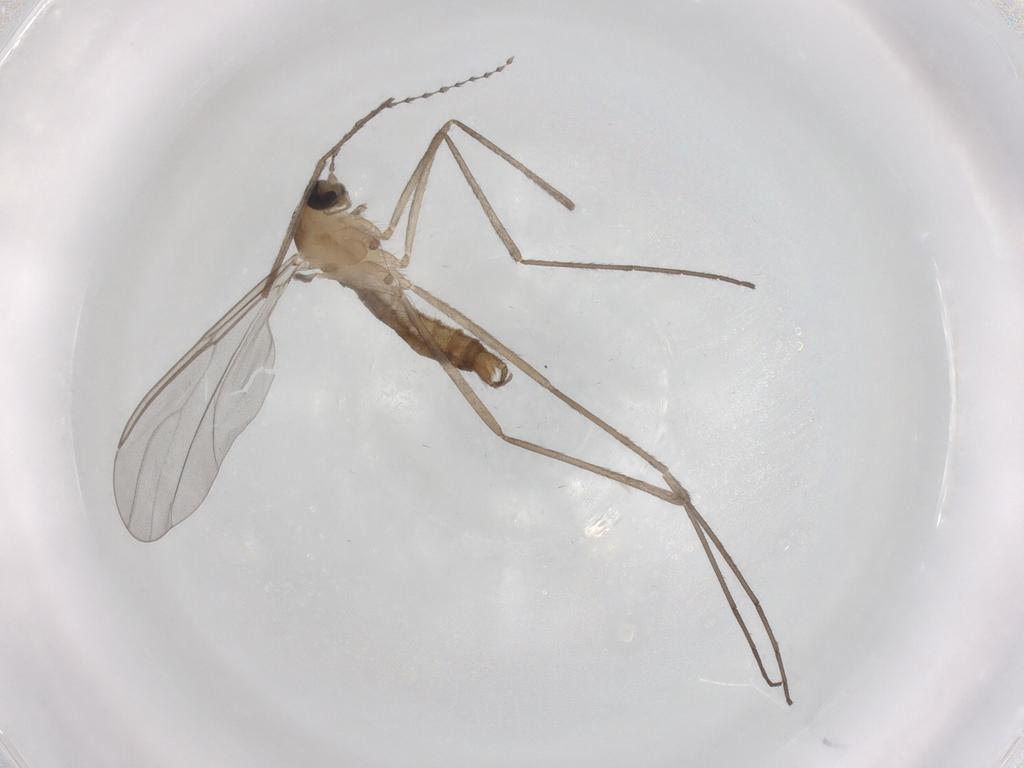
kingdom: Animalia
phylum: Arthropoda
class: Insecta
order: Diptera
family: Cecidomyiidae
